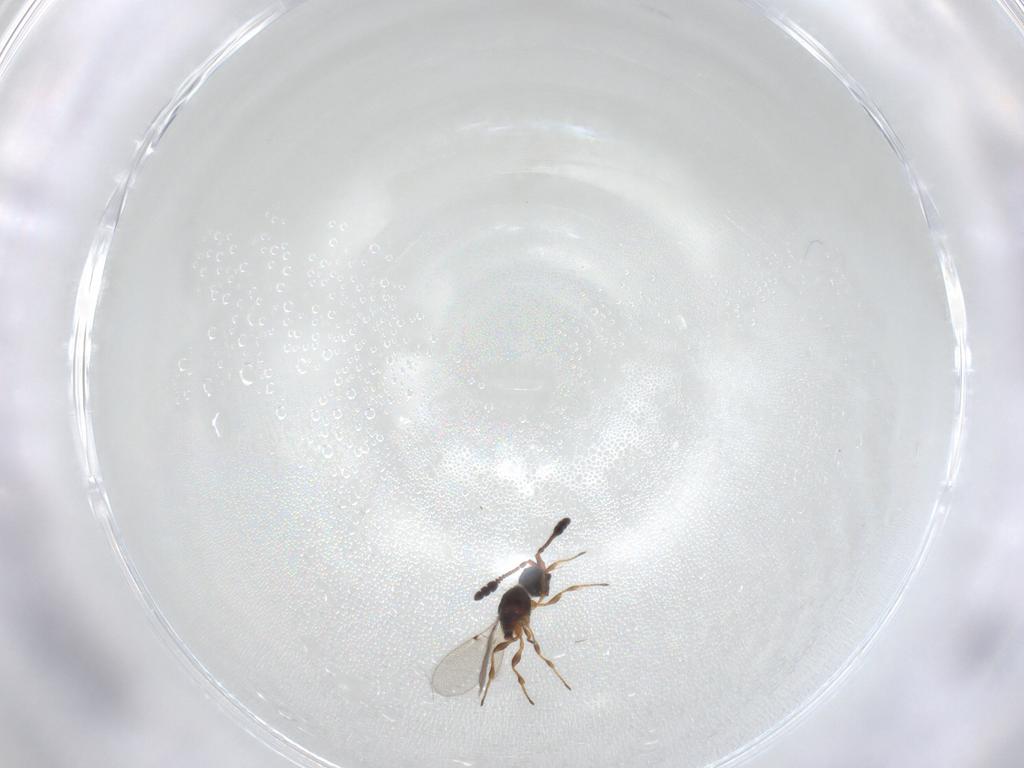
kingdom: Animalia
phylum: Arthropoda
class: Insecta
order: Hymenoptera
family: Diapriidae
